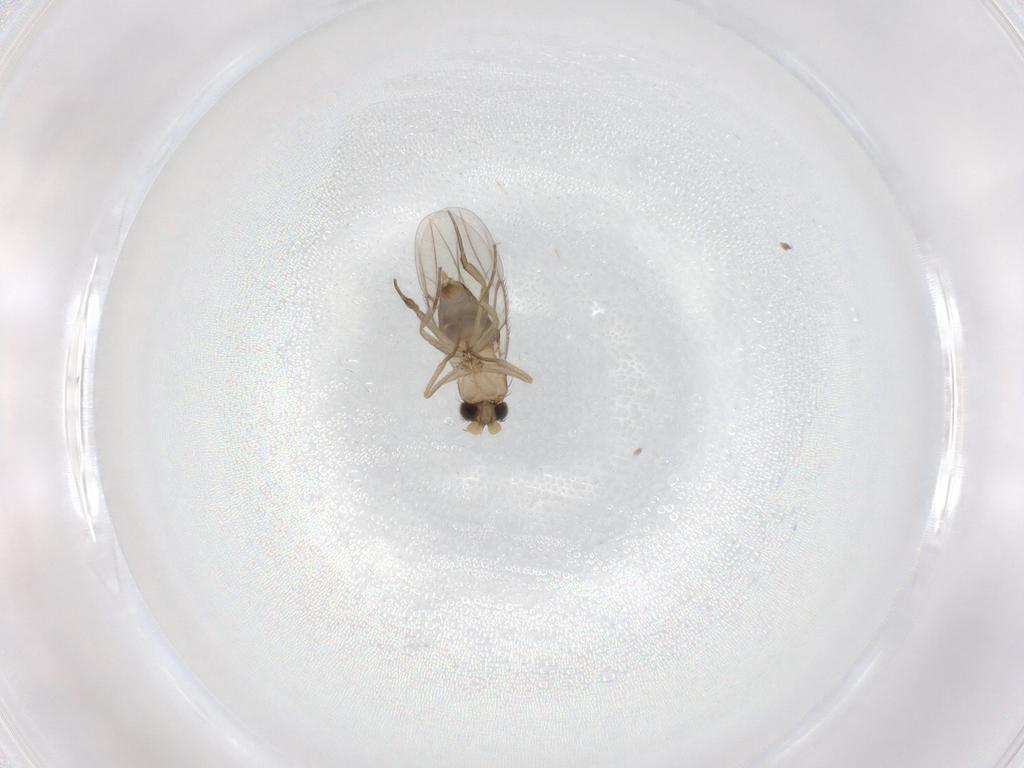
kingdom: Animalia
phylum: Arthropoda
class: Insecta
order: Diptera
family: Phoridae
